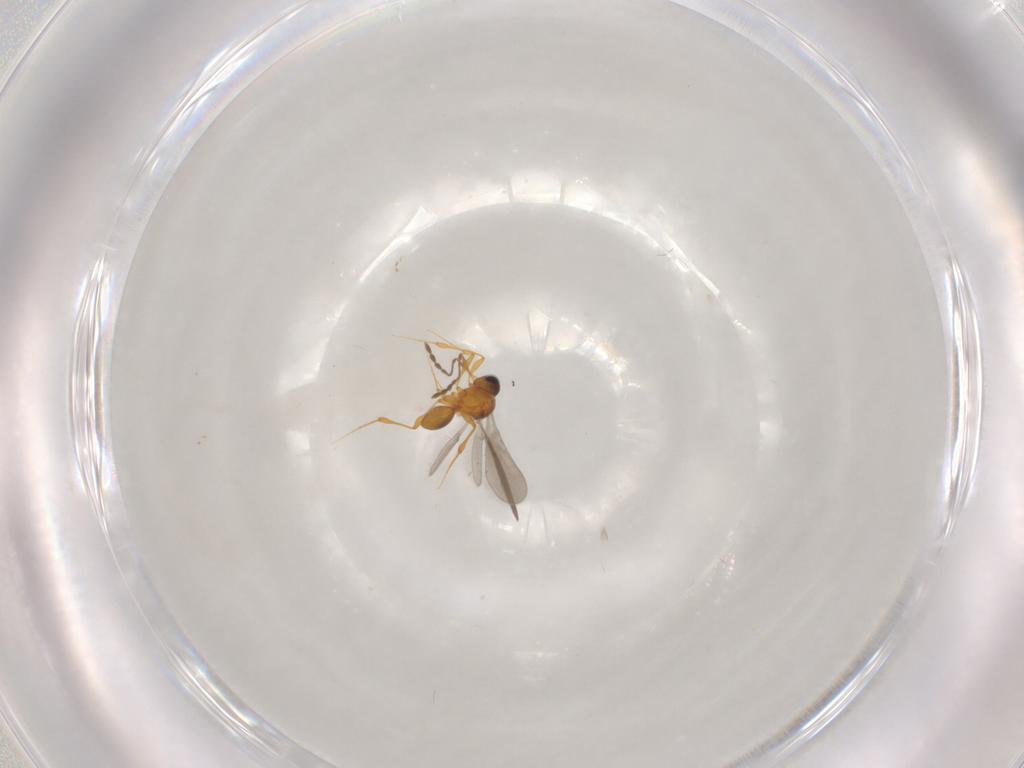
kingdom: Animalia
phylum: Arthropoda
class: Insecta
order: Hymenoptera
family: Platygastridae
